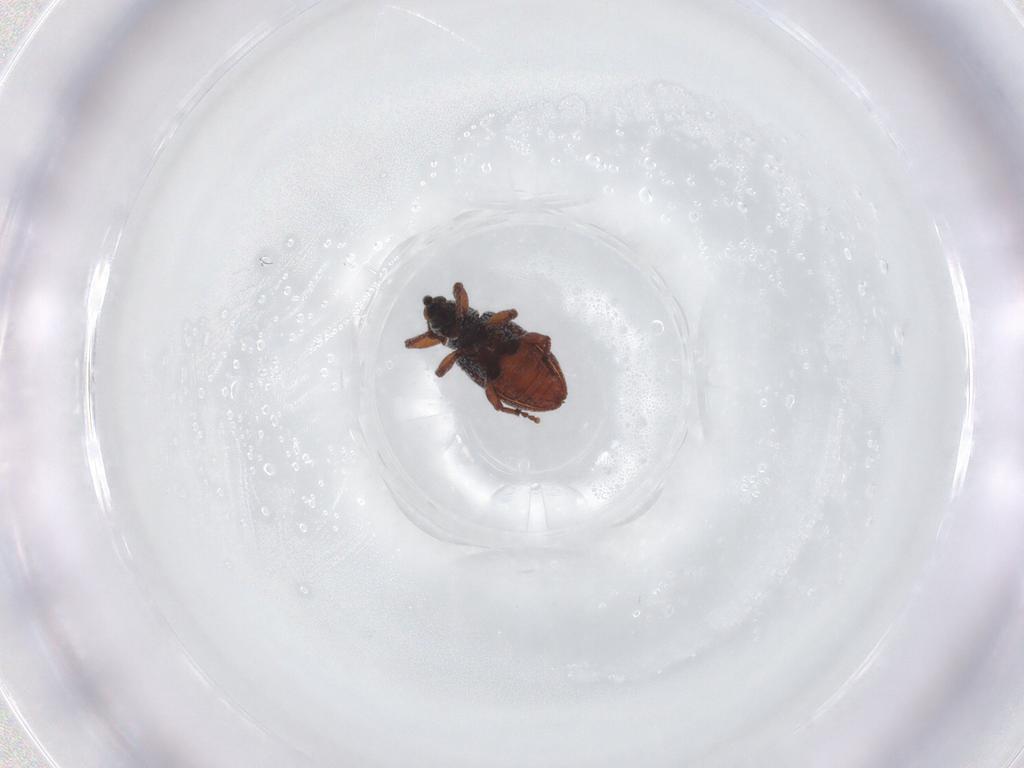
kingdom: Animalia
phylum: Arthropoda
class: Insecta
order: Coleoptera
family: Curculionidae
